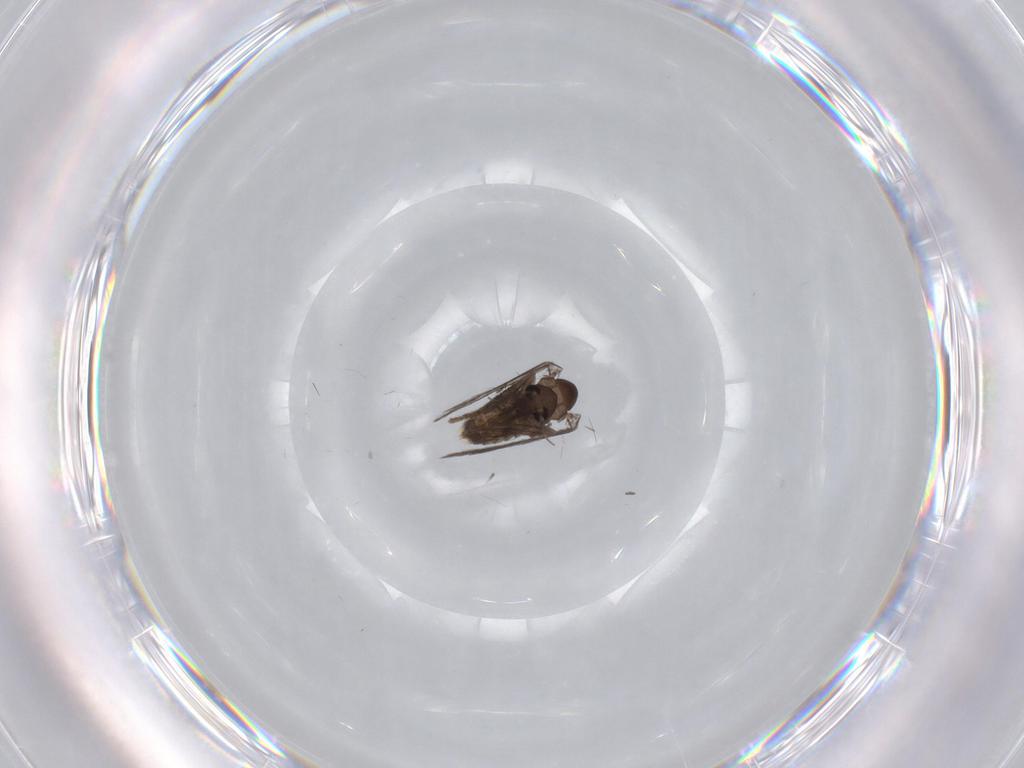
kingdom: Animalia
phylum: Arthropoda
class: Insecta
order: Diptera
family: Psychodidae
